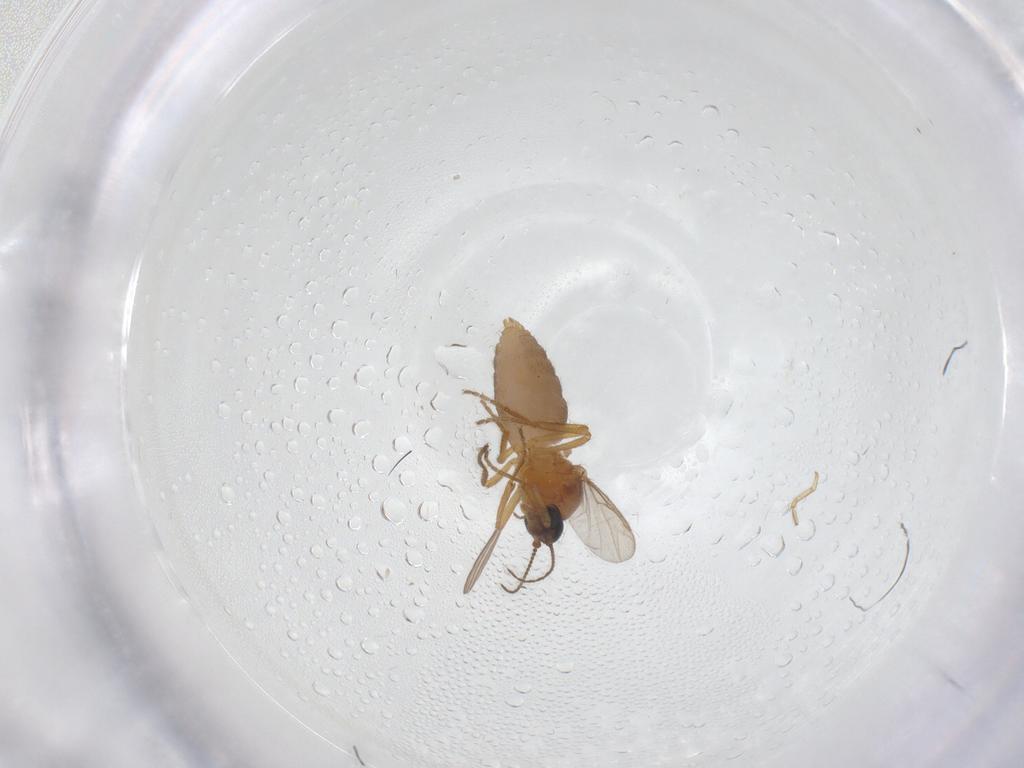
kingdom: Animalia
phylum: Arthropoda
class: Insecta
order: Diptera
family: Ceratopogonidae
